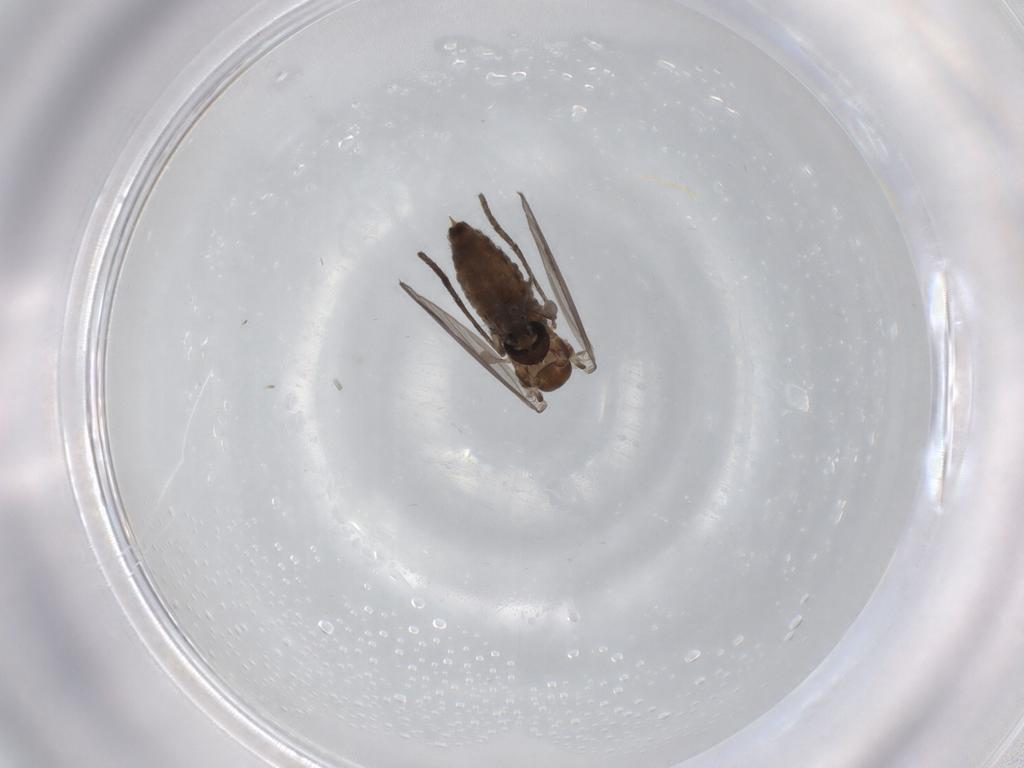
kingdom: Animalia
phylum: Arthropoda
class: Insecta
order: Diptera
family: Psychodidae
